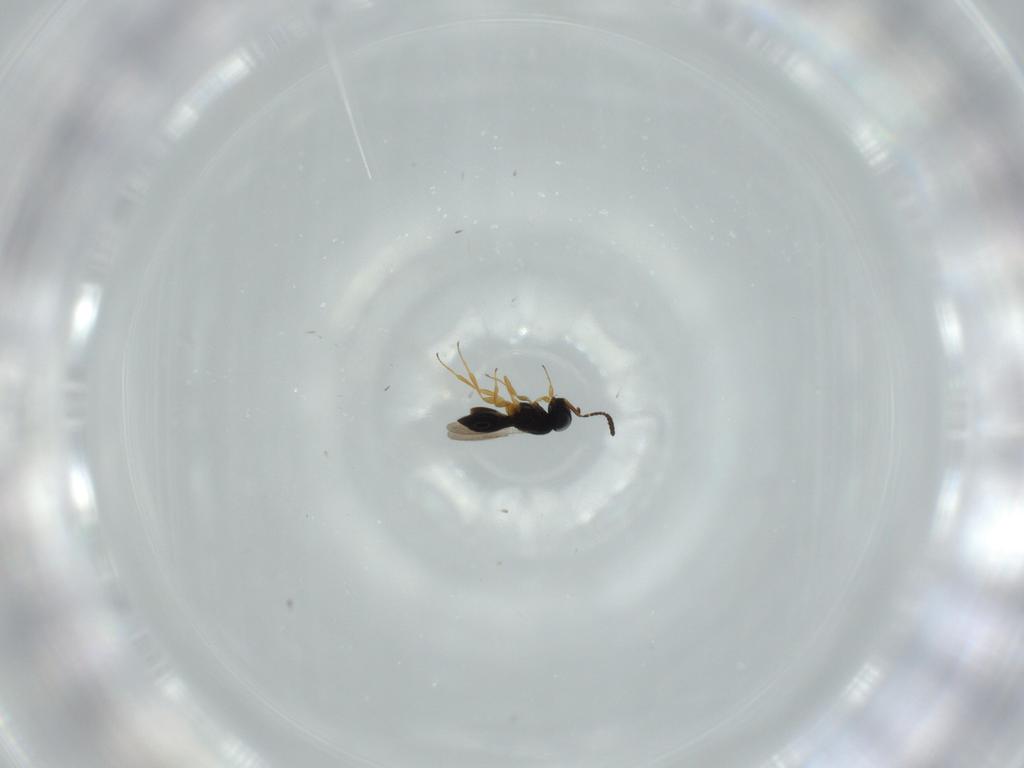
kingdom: Animalia
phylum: Arthropoda
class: Insecta
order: Hymenoptera
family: Scelionidae
